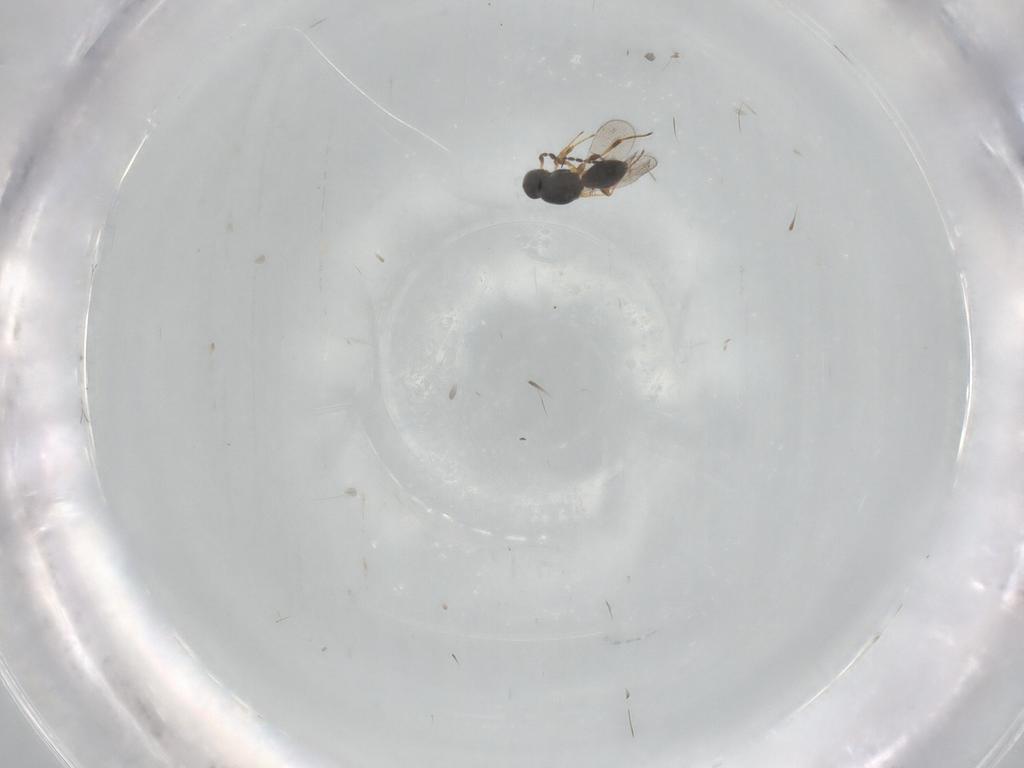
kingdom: Animalia
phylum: Arthropoda
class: Insecta
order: Hymenoptera
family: Platygastridae
